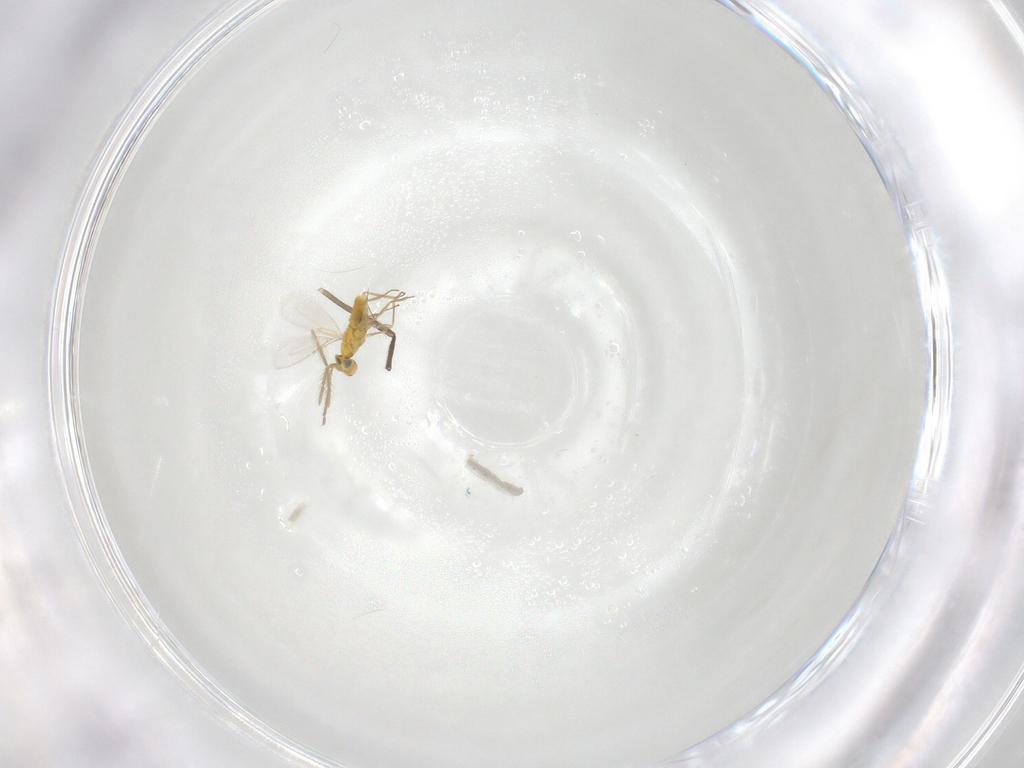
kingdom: Animalia
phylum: Arthropoda
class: Insecta
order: Hymenoptera
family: Aphelinidae
